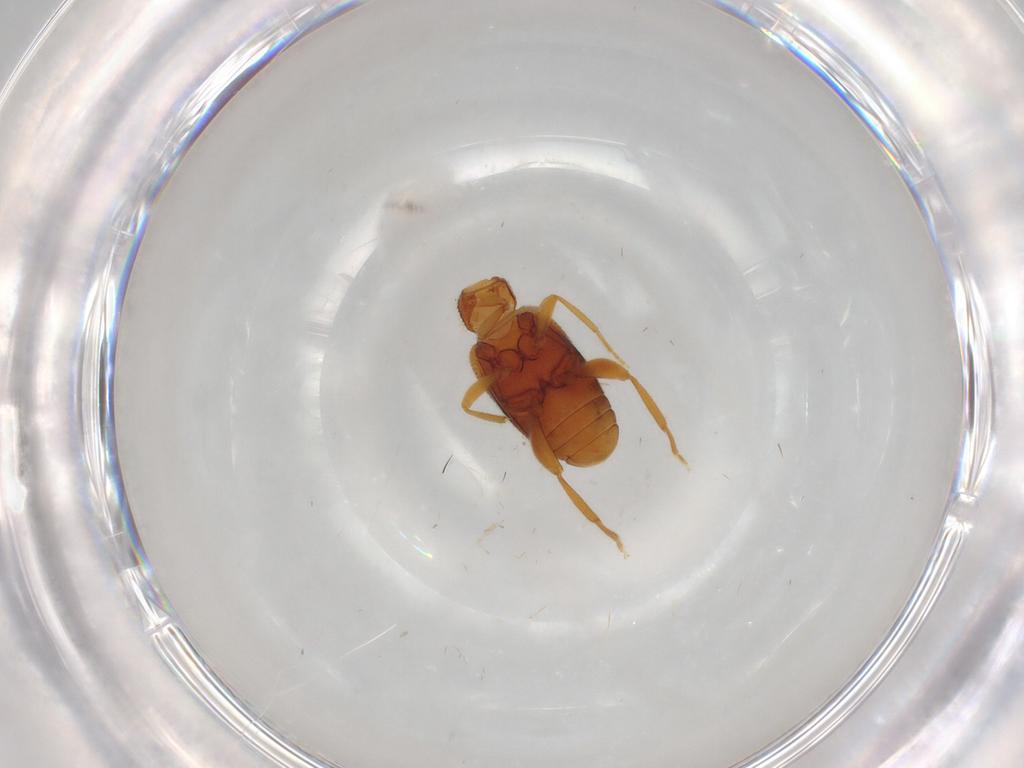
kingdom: Animalia
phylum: Arthropoda
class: Insecta
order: Coleoptera
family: Aderidae
